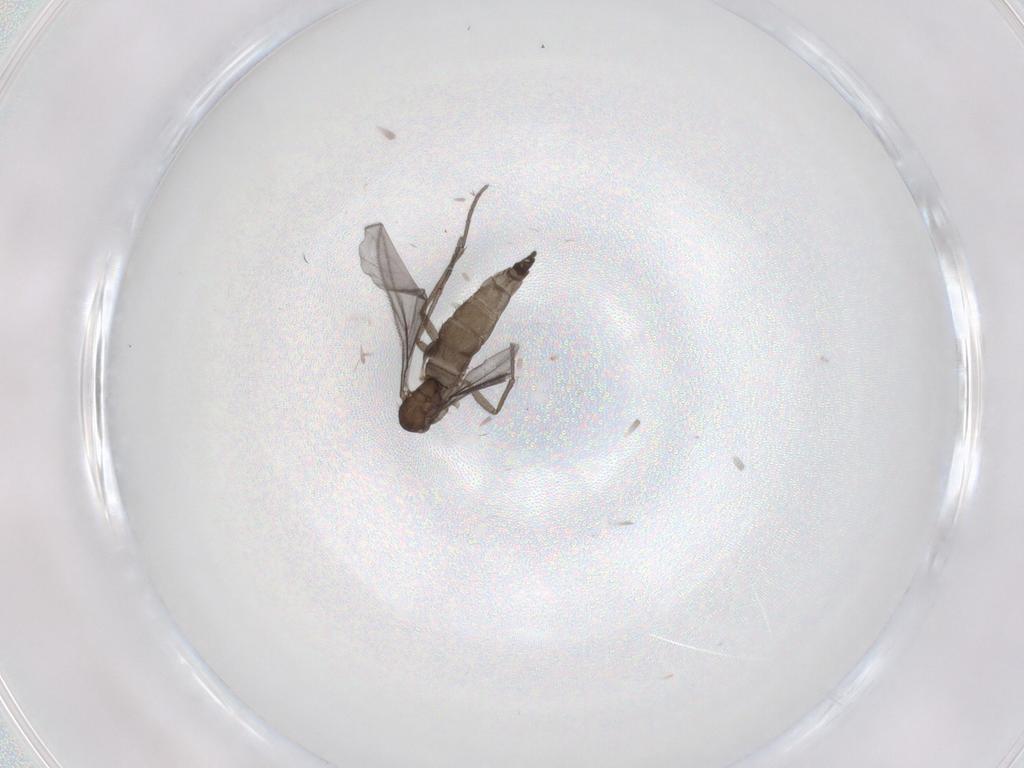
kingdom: Animalia
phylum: Arthropoda
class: Insecta
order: Diptera
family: Sciaridae
